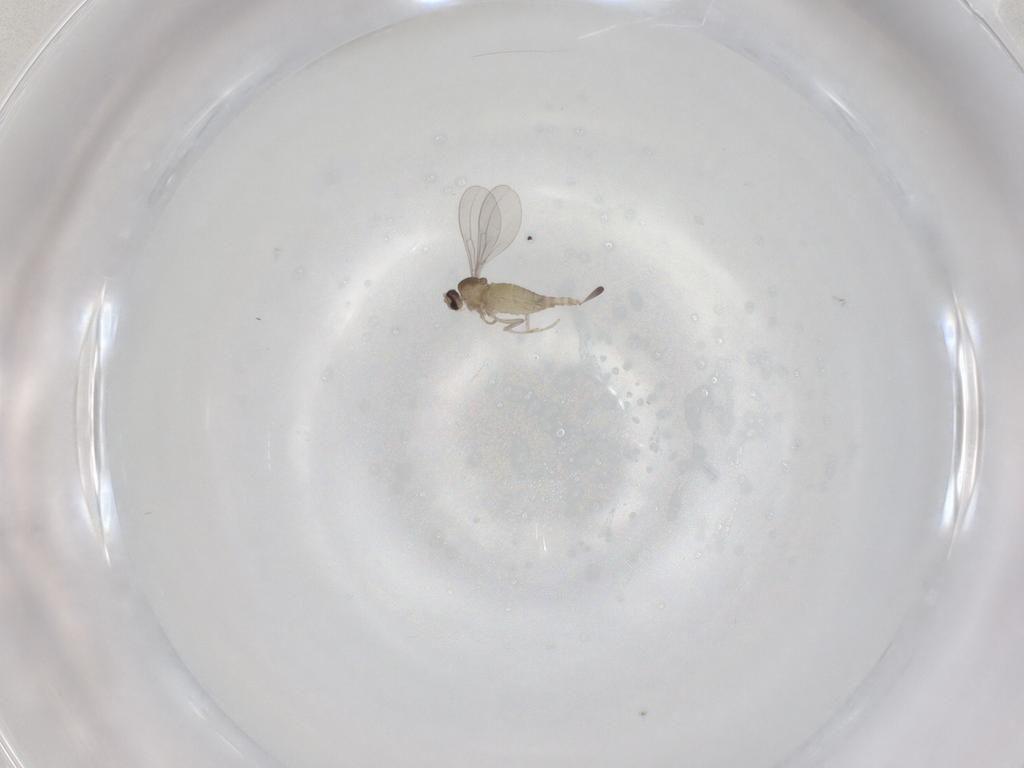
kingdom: Animalia
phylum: Arthropoda
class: Insecta
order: Diptera
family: Cecidomyiidae
